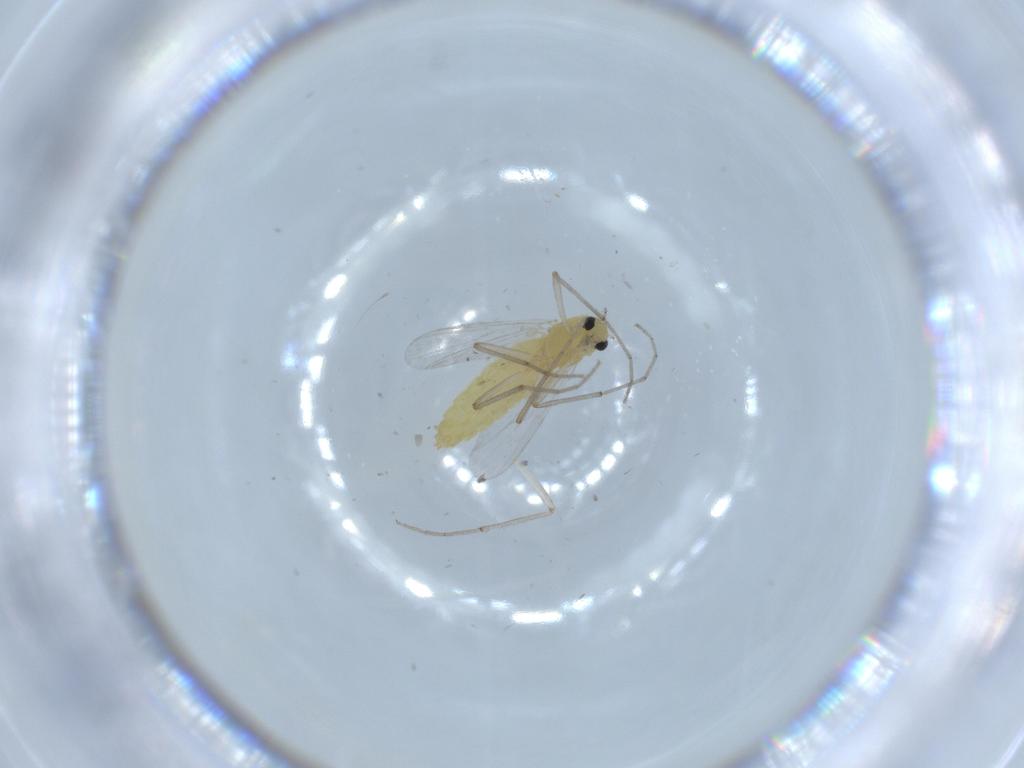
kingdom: Animalia
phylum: Arthropoda
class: Insecta
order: Diptera
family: Chironomidae
